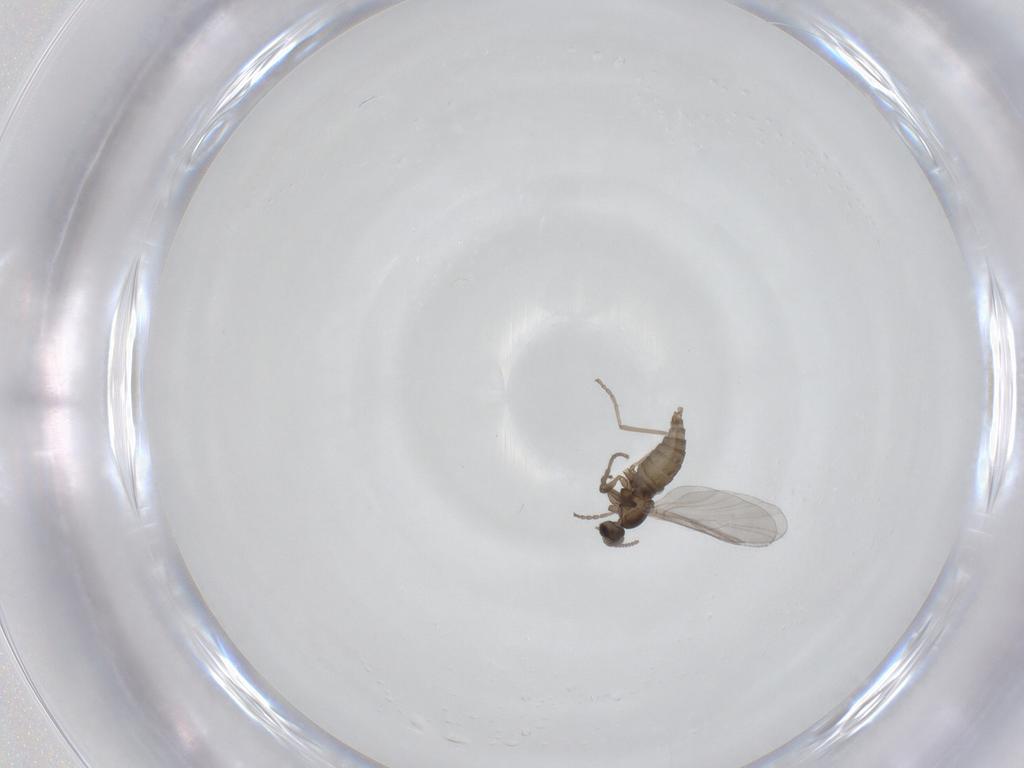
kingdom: Animalia
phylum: Arthropoda
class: Insecta
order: Diptera
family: Cecidomyiidae
